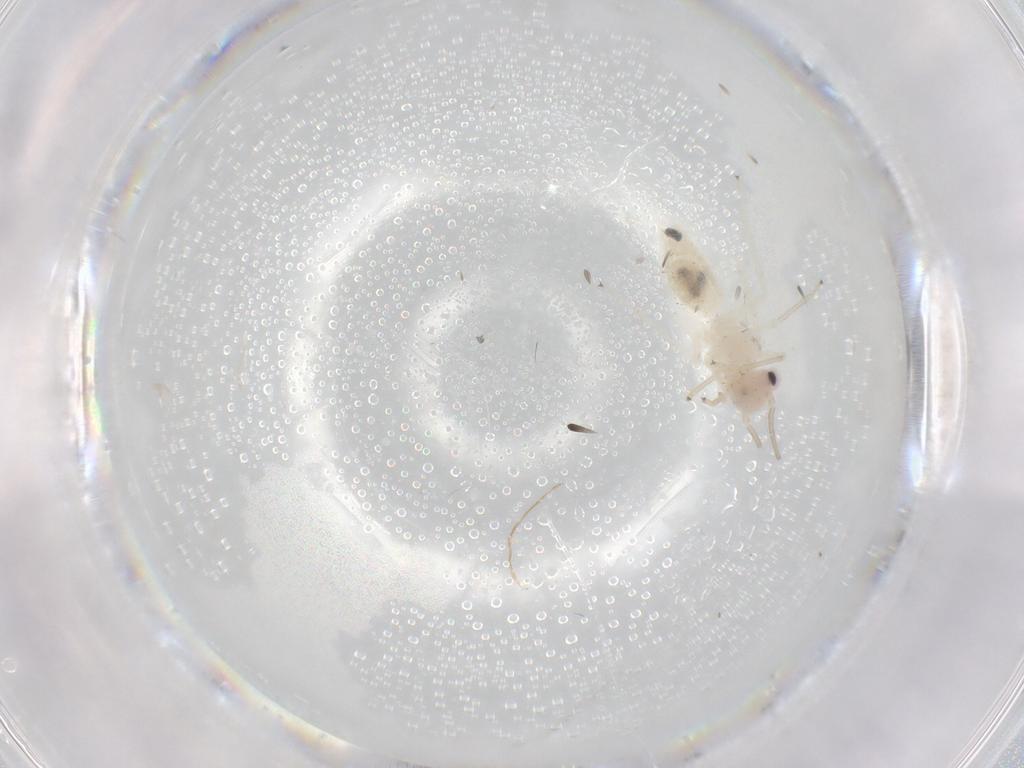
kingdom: Animalia
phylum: Arthropoda
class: Insecta
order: Psocodea
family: Caeciliusidae
